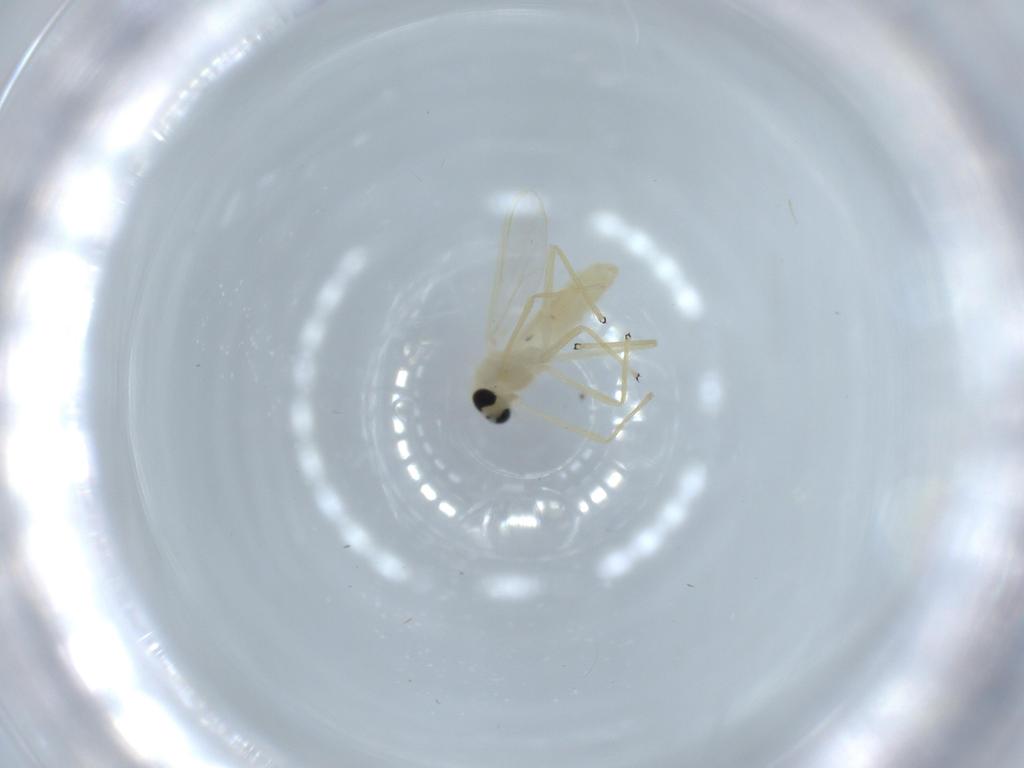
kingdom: Animalia
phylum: Arthropoda
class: Insecta
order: Diptera
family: Chironomidae
